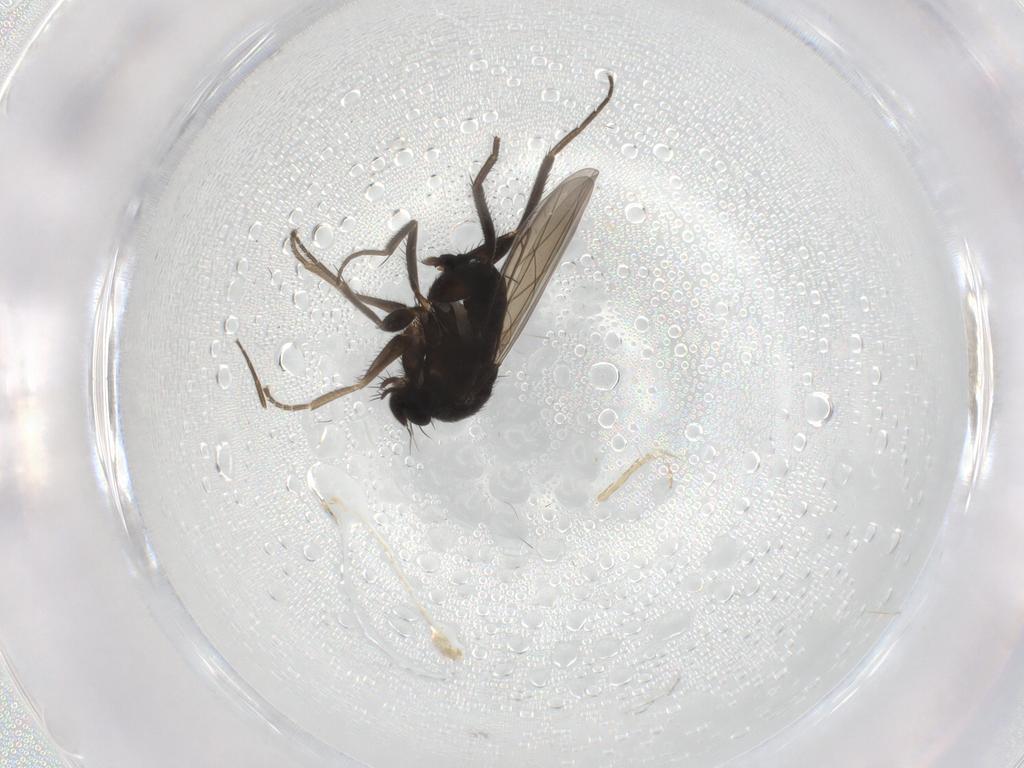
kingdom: Animalia
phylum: Arthropoda
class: Insecta
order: Diptera
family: Phoridae
